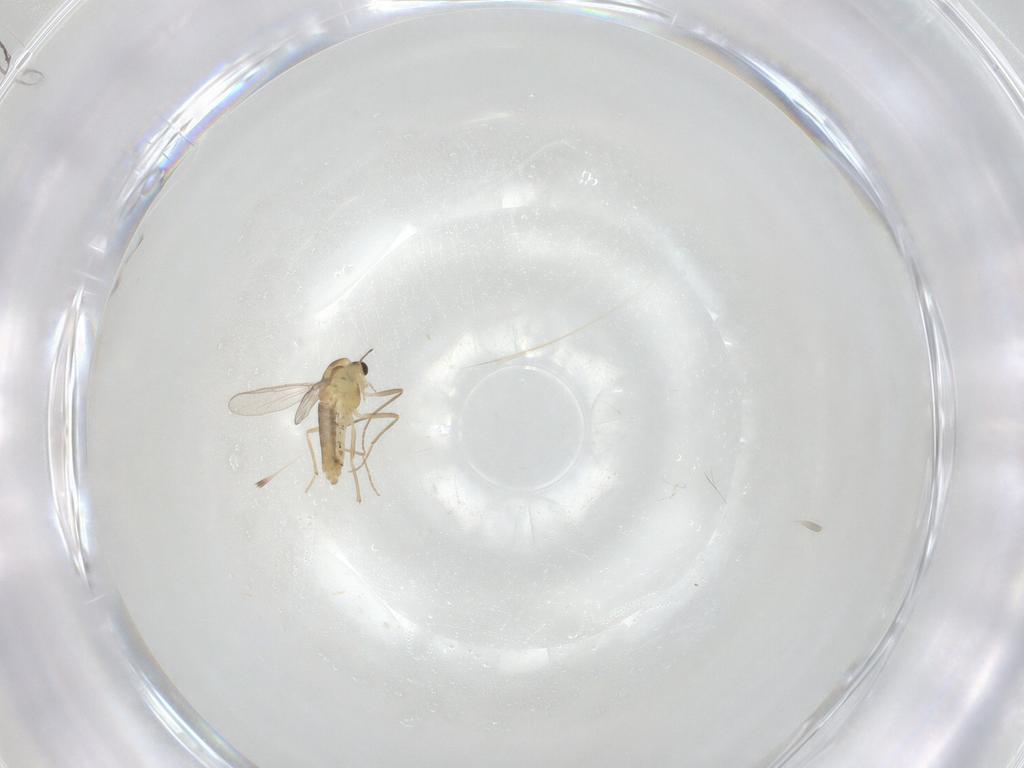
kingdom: Animalia
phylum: Arthropoda
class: Insecta
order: Diptera
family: Chironomidae
